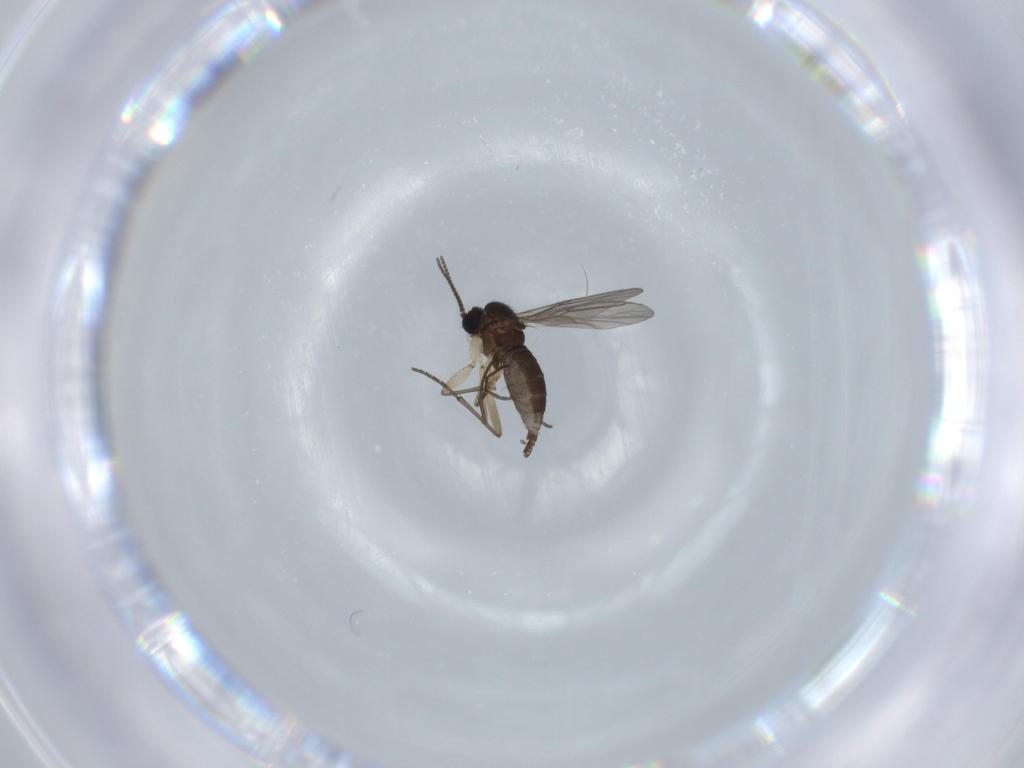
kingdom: Animalia
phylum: Arthropoda
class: Insecta
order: Diptera
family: Sciaridae
